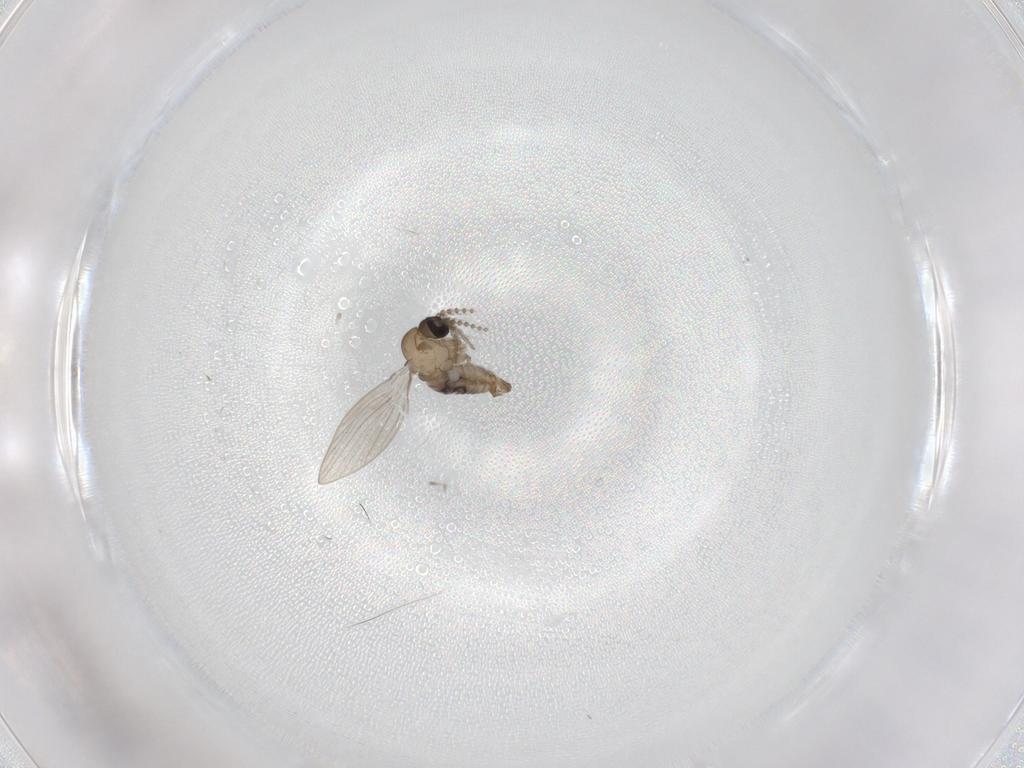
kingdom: Animalia
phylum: Arthropoda
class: Insecta
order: Diptera
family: Psychodidae
